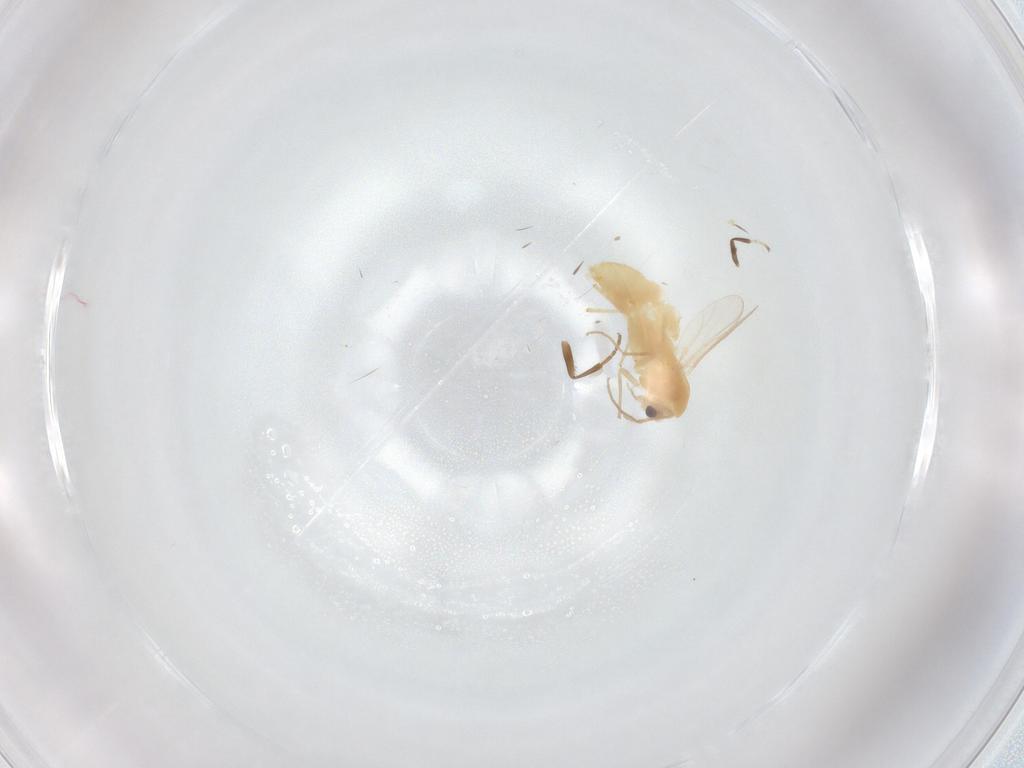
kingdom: Animalia
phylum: Arthropoda
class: Insecta
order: Diptera
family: Chironomidae
